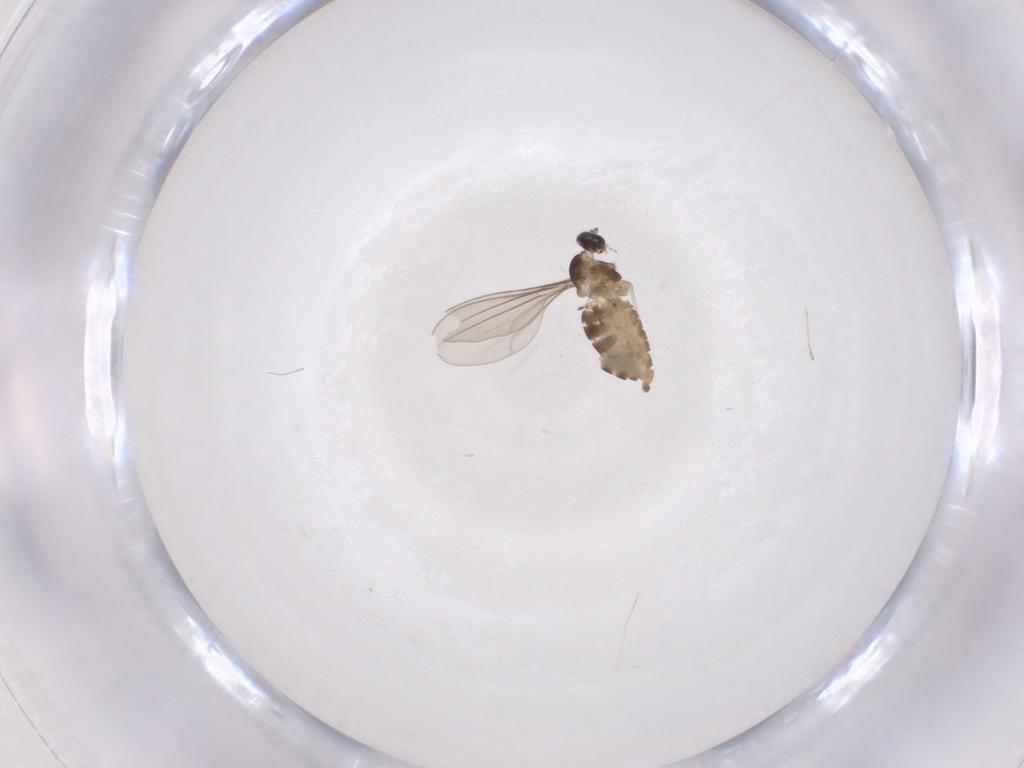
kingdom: Animalia
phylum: Arthropoda
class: Insecta
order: Diptera
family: Cecidomyiidae
